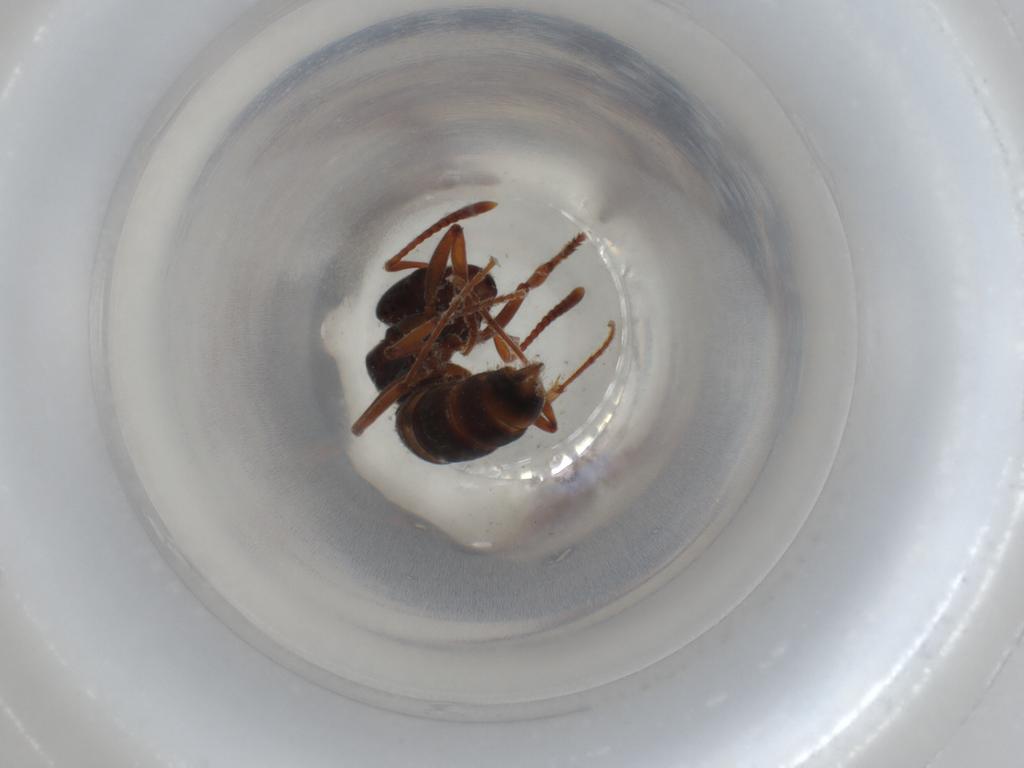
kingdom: Animalia
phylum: Arthropoda
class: Insecta
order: Hymenoptera
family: Formicidae
